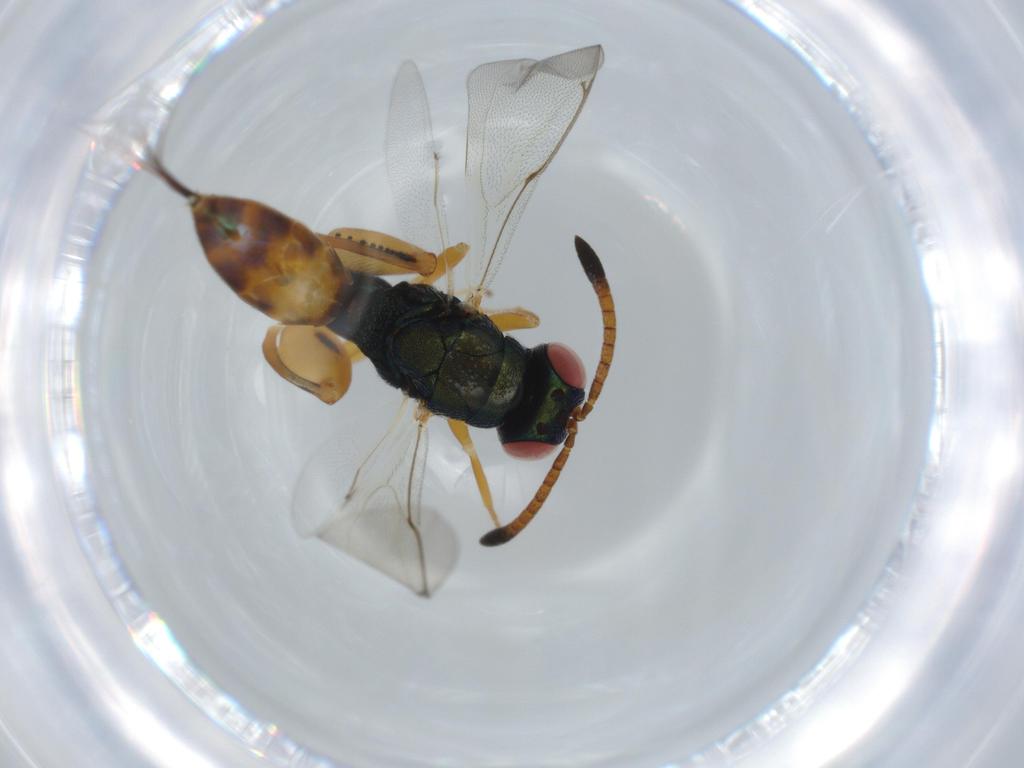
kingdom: Animalia
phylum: Arthropoda
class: Insecta
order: Hymenoptera
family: Torymidae
